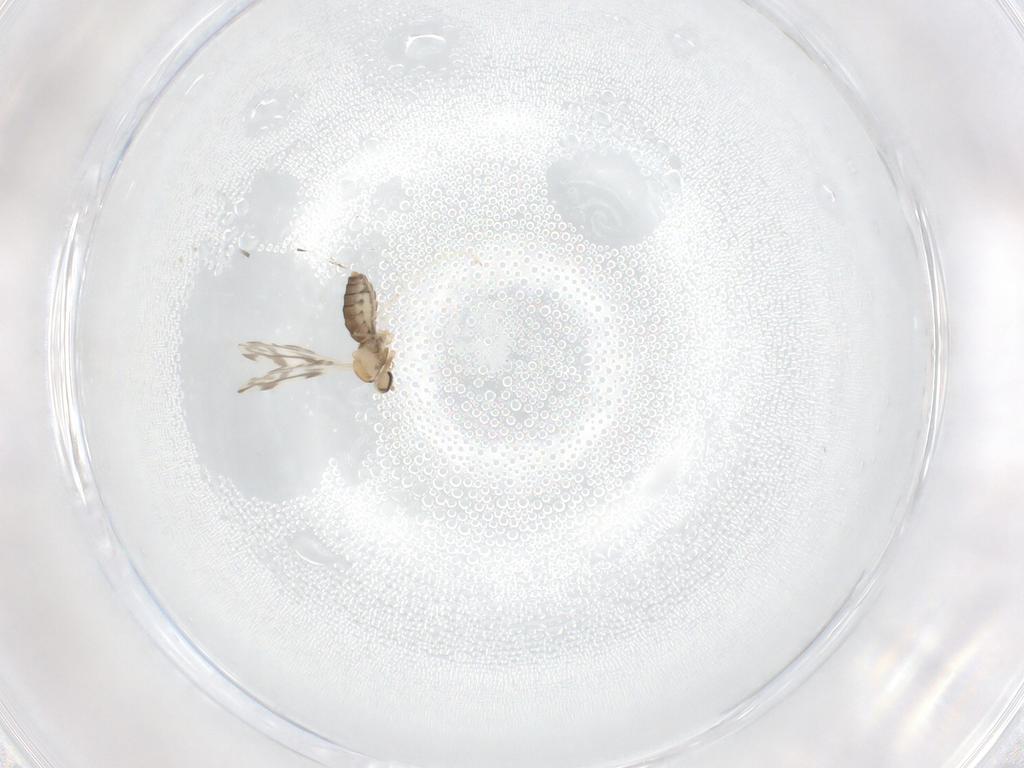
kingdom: Animalia
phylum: Arthropoda
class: Insecta
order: Diptera
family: Cecidomyiidae
